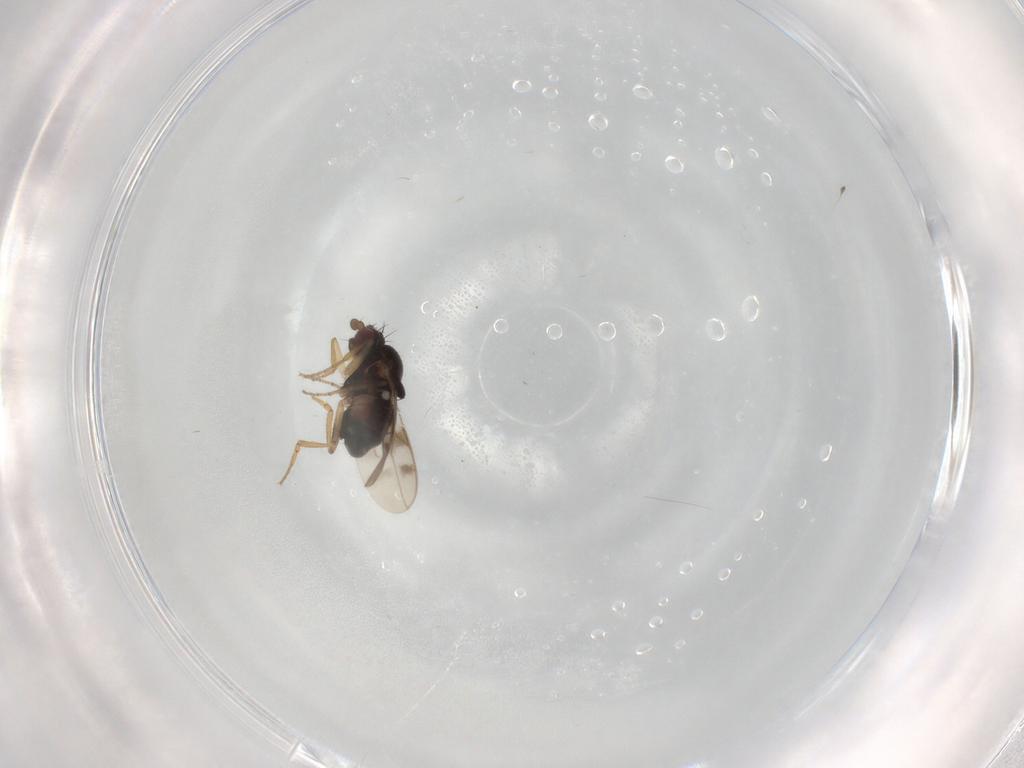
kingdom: Animalia
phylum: Arthropoda
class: Insecta
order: Diptera
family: Sphaeroceridae
